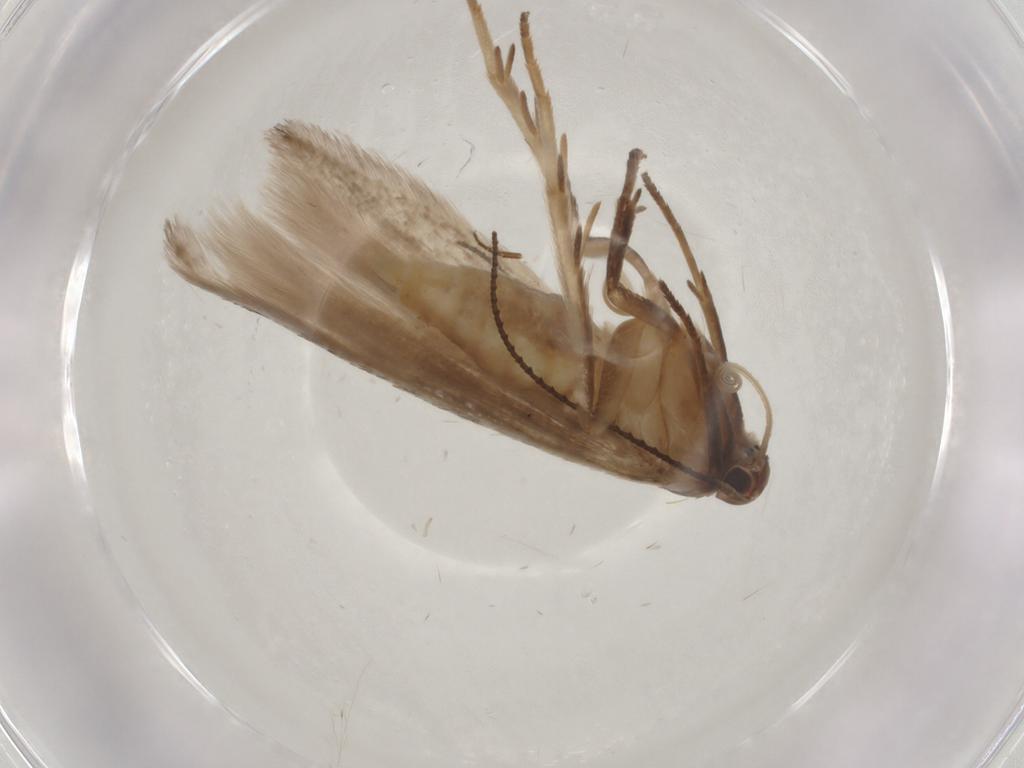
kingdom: Animalia
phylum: Arthropoda
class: Insecta
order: Lepidoptera
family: Gelechiidae
